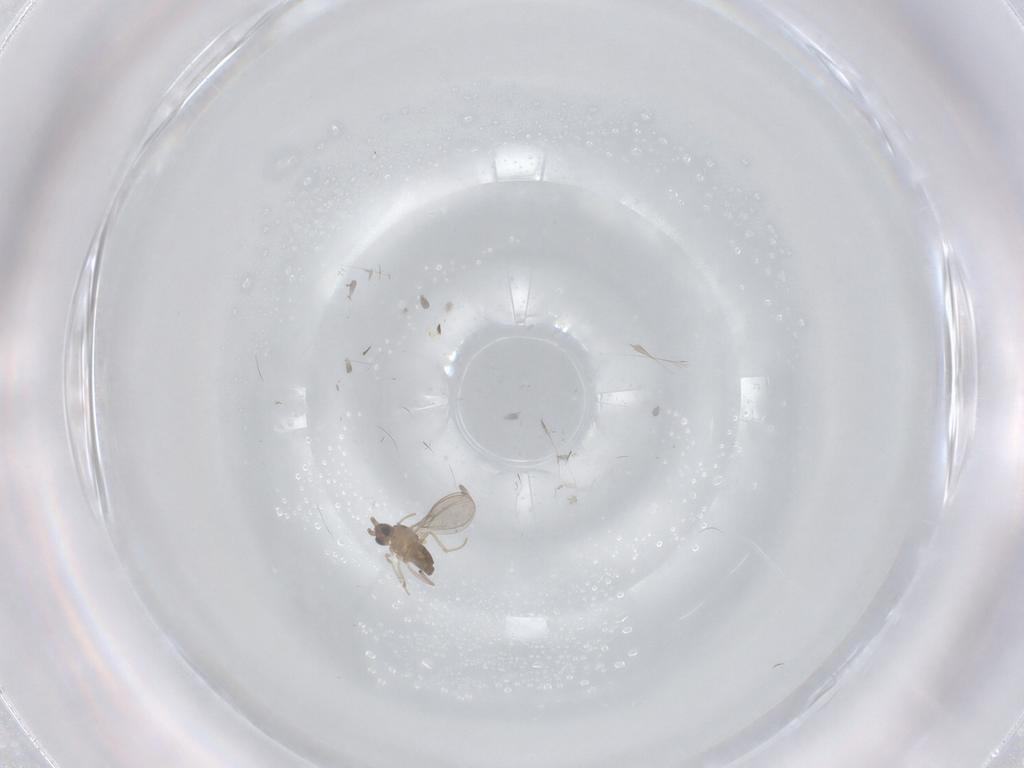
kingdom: Animalia
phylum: Arthropoda
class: Insecta
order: Diptera
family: Cecidomyiidae
